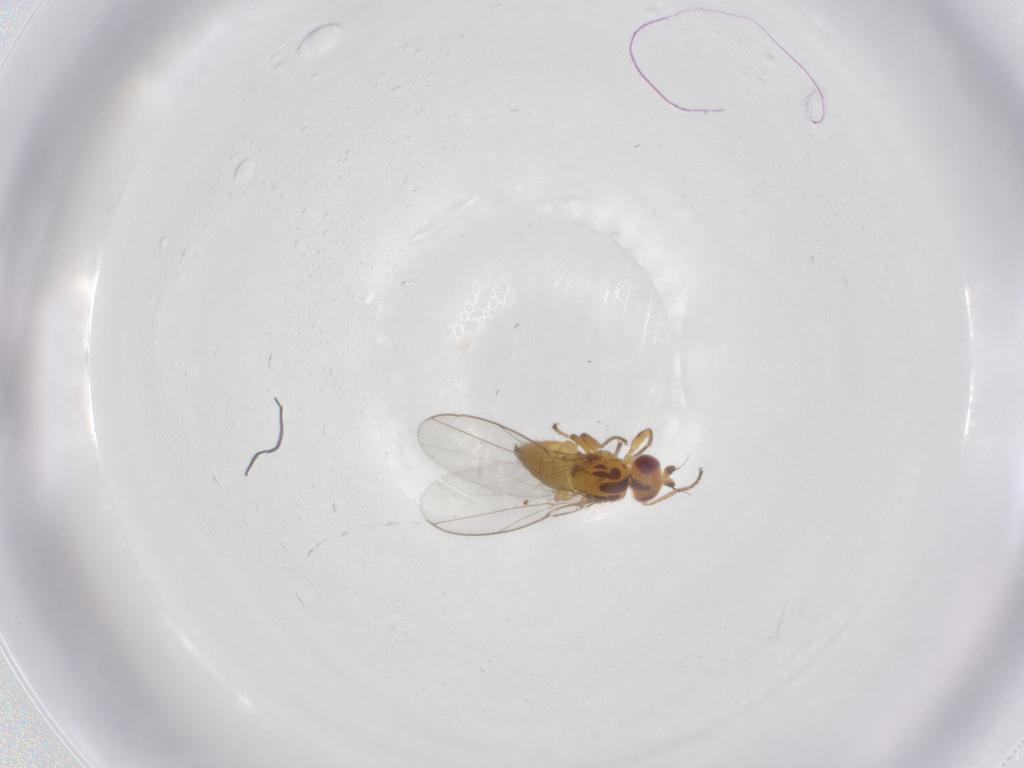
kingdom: Animalia
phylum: Arthropoda
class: Insecta
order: Diptera
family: Chloropidae
